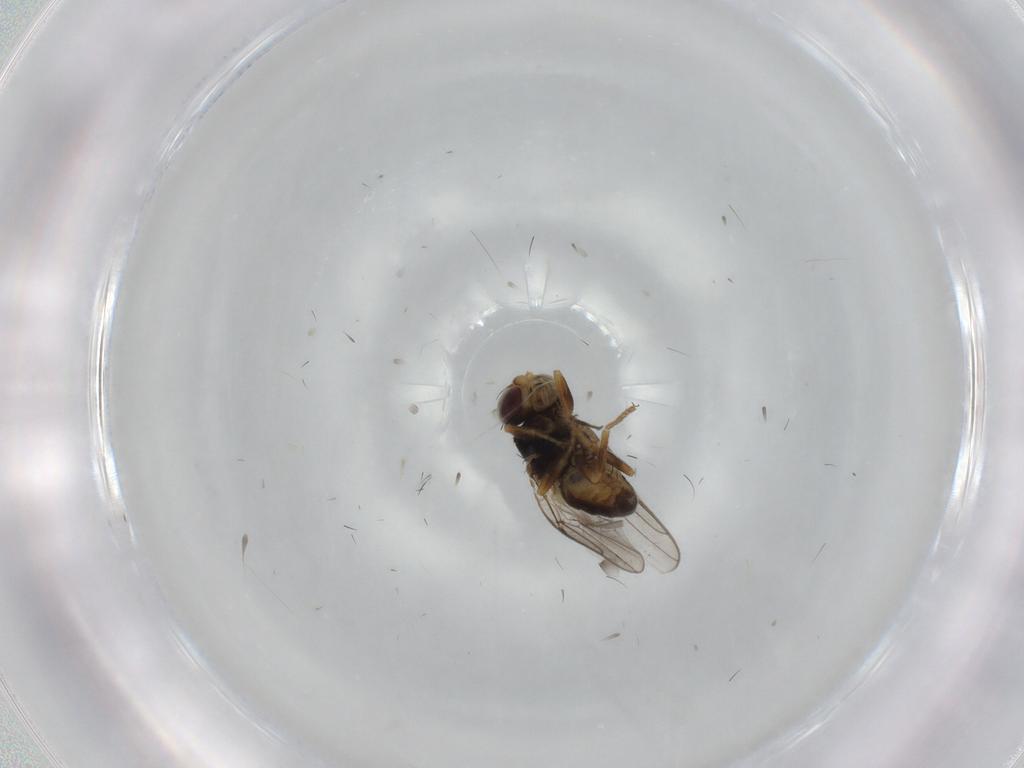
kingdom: Animalia
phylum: Arthropoda
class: Insecta
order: Diptera
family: Chloropidae
